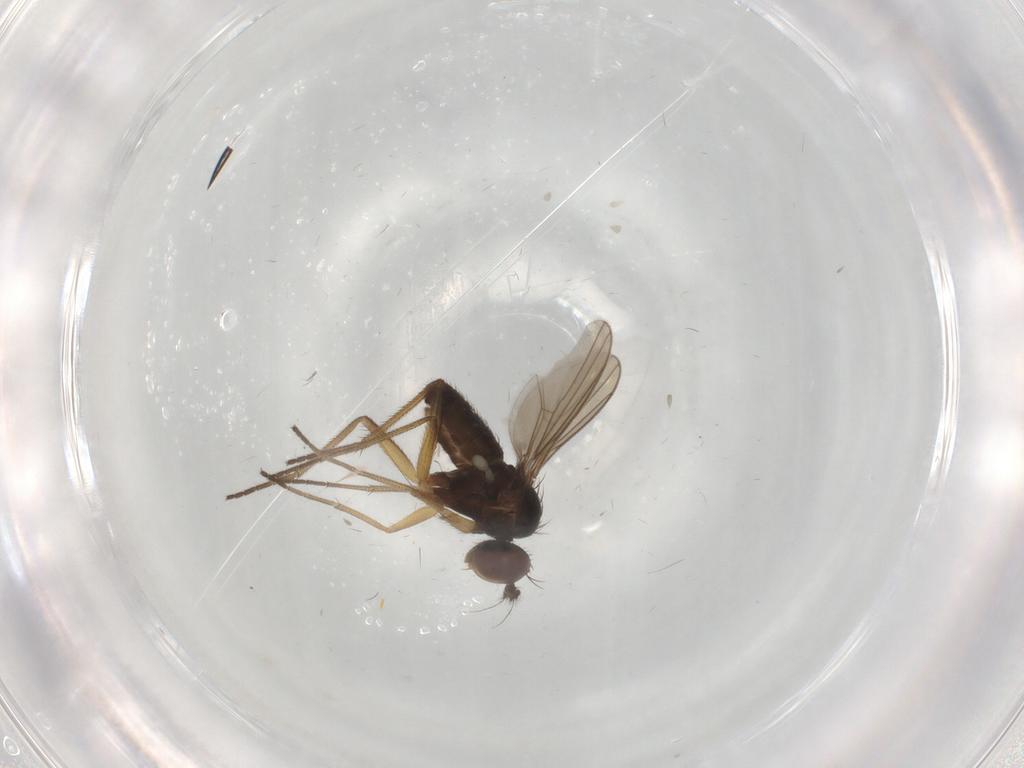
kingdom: Animalia
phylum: Arthropoda
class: Insecta
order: Diptera
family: Dolichopodidae
